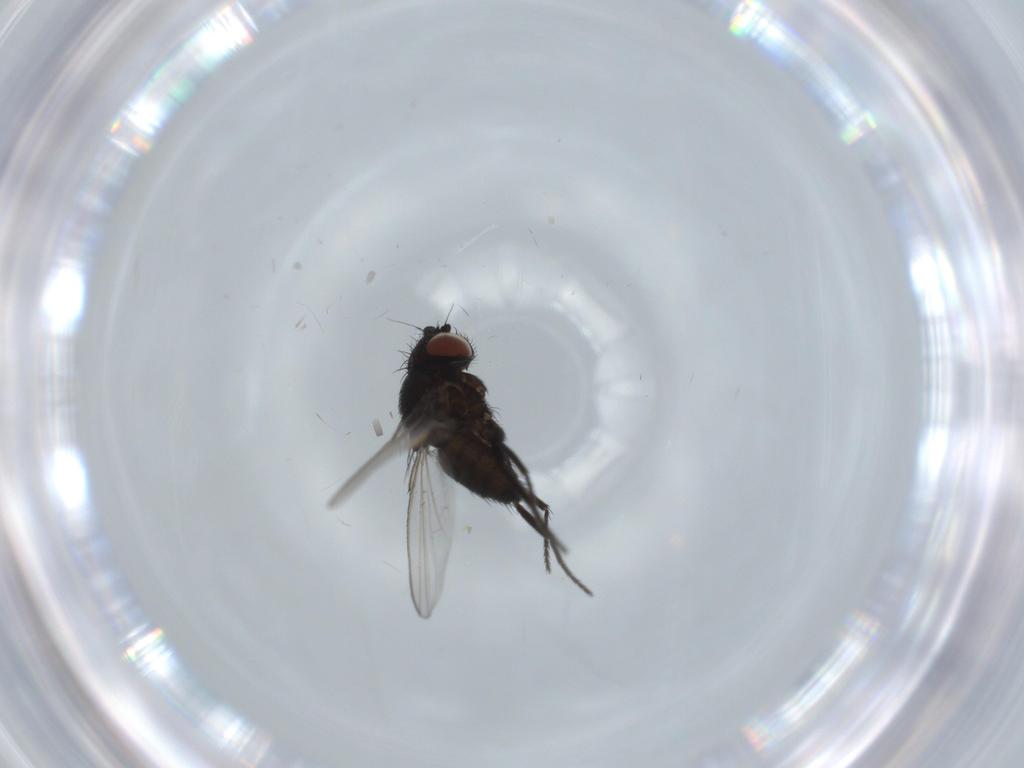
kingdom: Animalia
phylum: Arthropoda
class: Insecta
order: Diptera
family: Milichiidae
